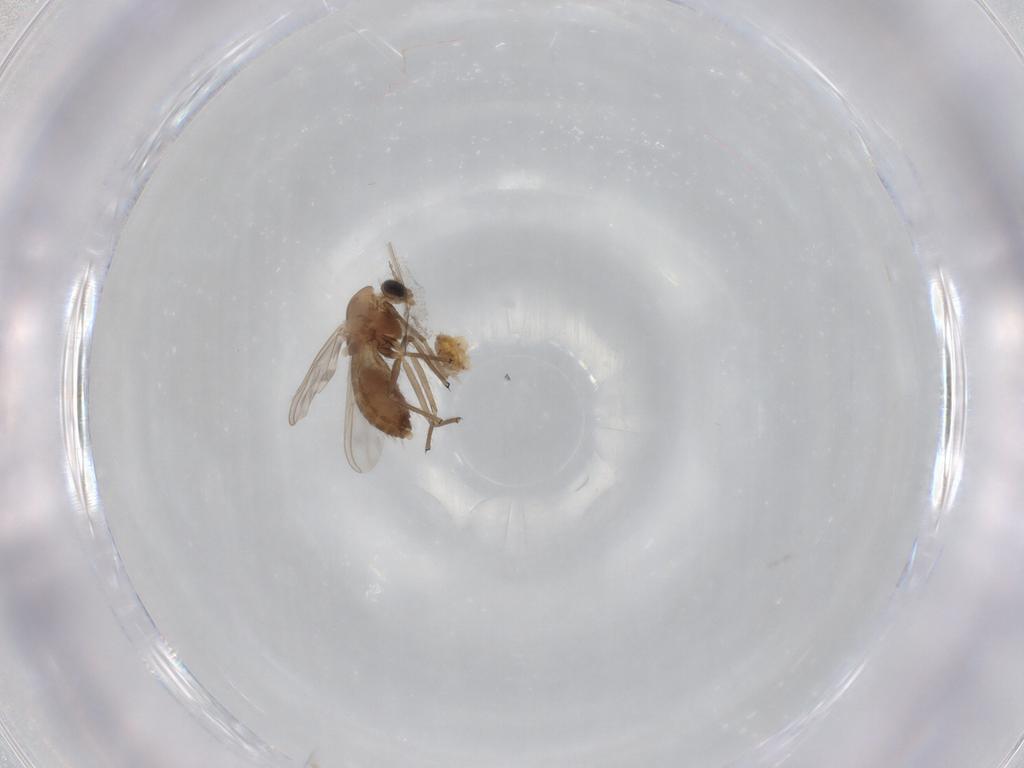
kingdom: Animalia
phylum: Arthropoda
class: Insecta
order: Diptera
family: Chironomidae
